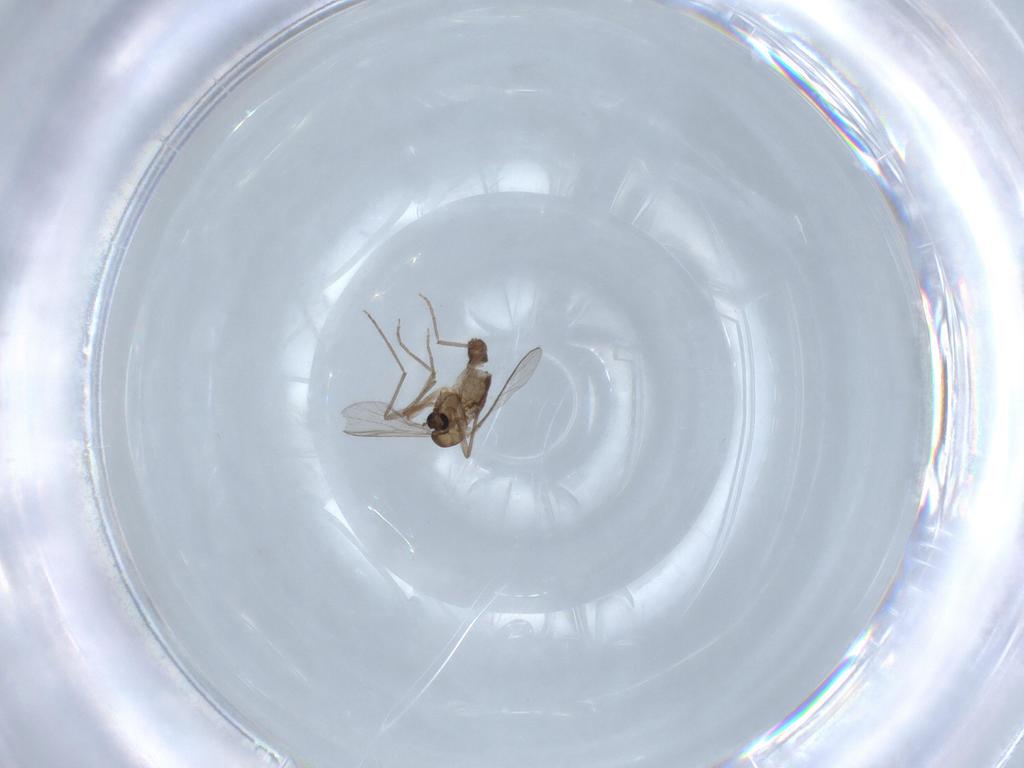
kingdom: Animalia
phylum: Arthropoda
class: Insecta
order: Diptera
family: Chironomidae
